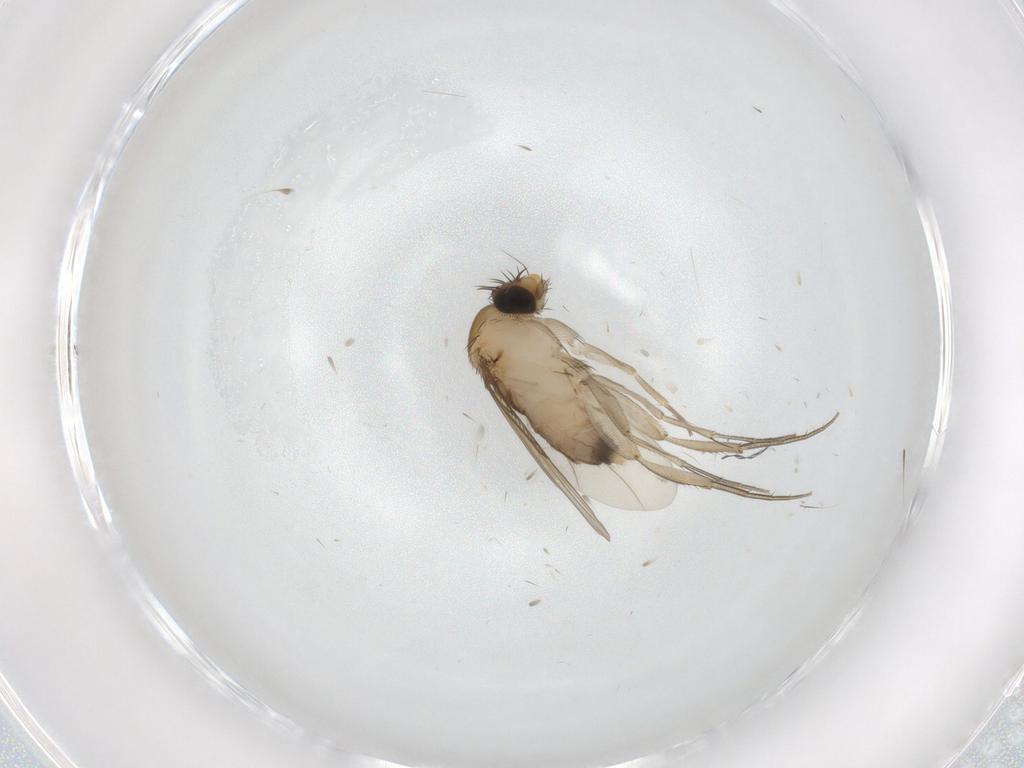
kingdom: Animalia
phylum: Arthropoda
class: Insecta
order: Diptera
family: Phoridae
